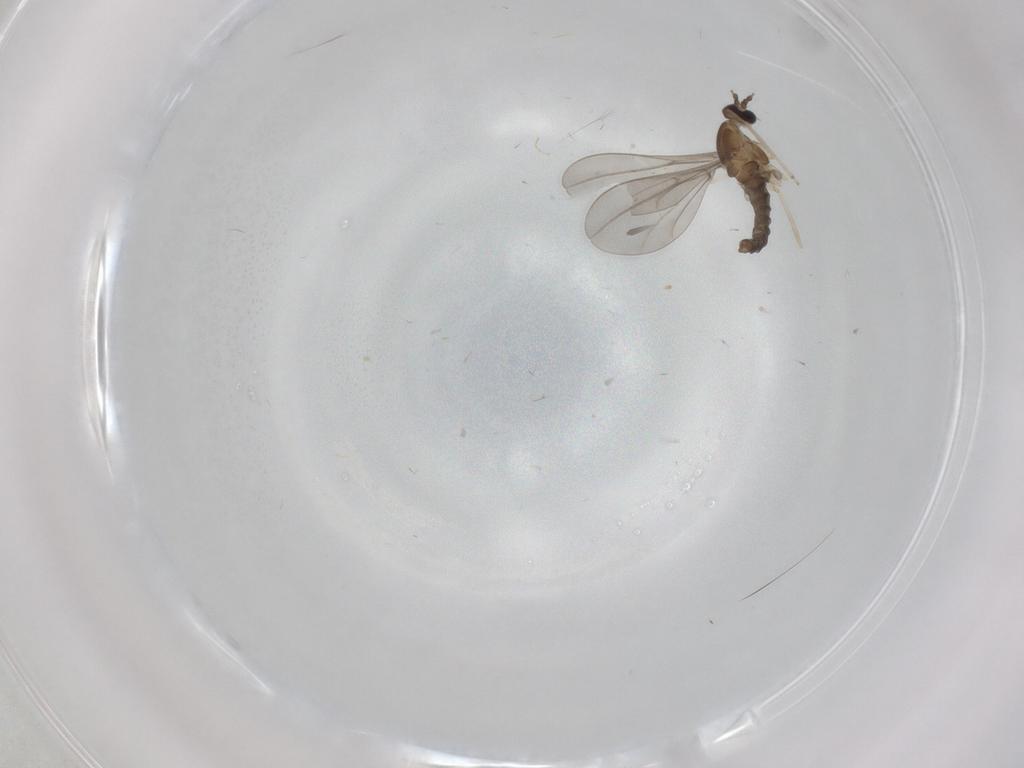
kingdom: Animalia
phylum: Arthropoda
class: Insecta
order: Diptera
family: Cecidomyiidae
